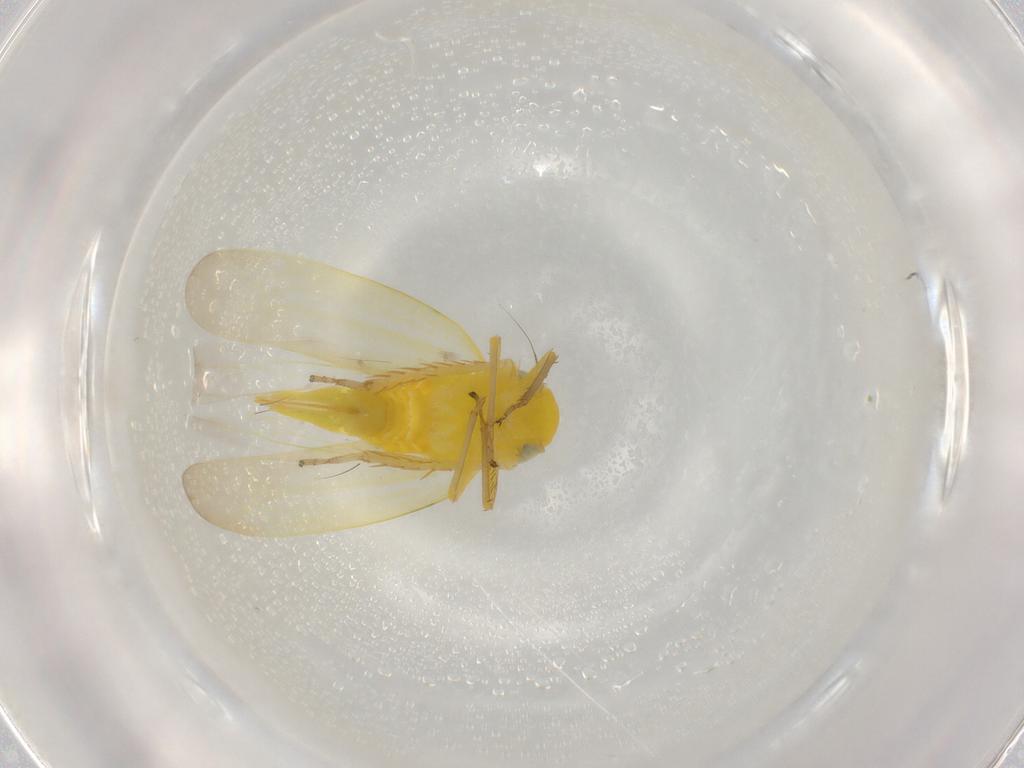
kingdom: Animalia
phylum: Arthropoda
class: Insecta
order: Hemiptera
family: Cicadellidae
